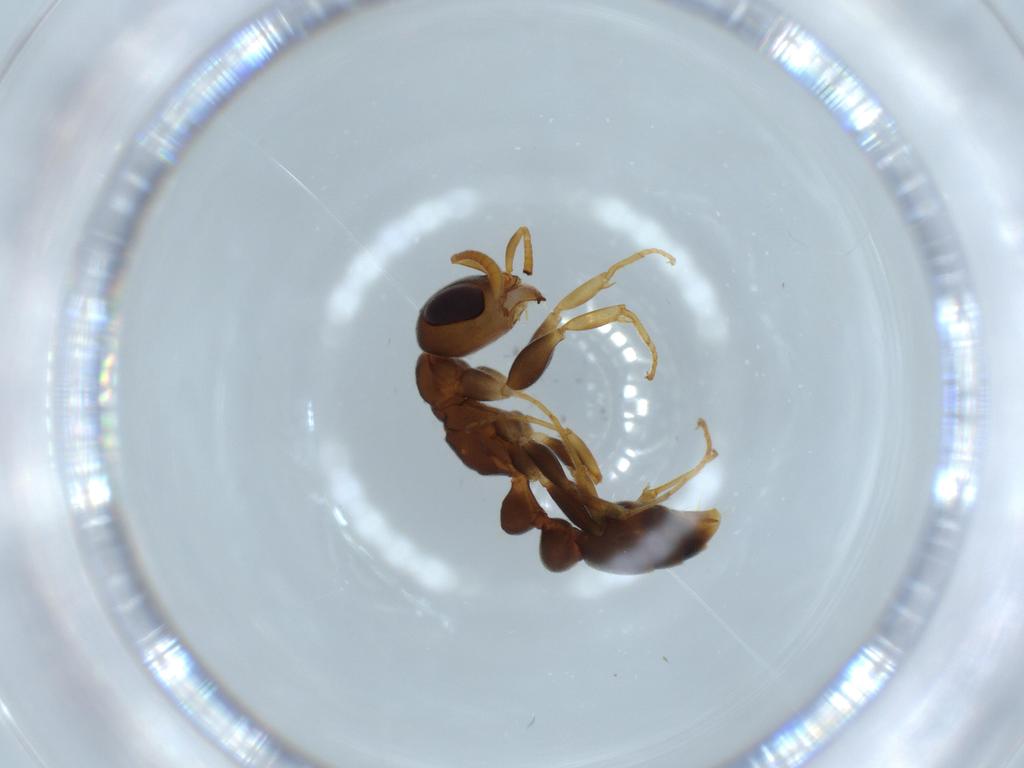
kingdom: Animalia
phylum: Arthropoda
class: Insecta
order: Hymenoptera
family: Formicidae
